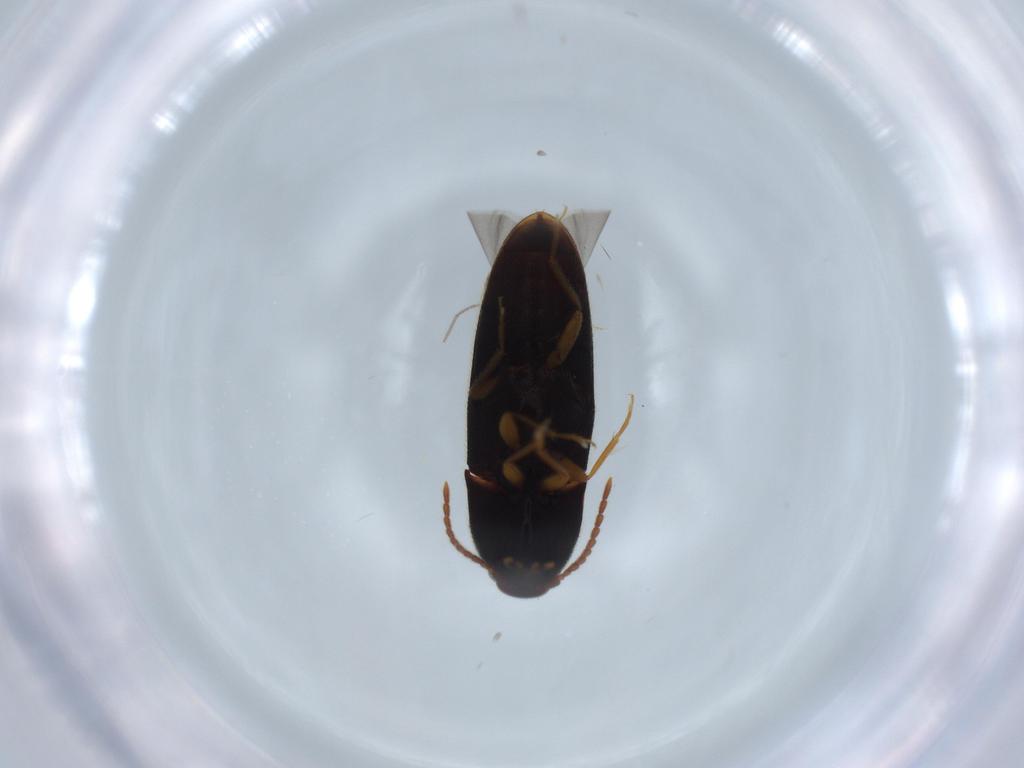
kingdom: Animalia
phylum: Arthropoda
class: Insecta
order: Coleoptera
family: Elateridae
